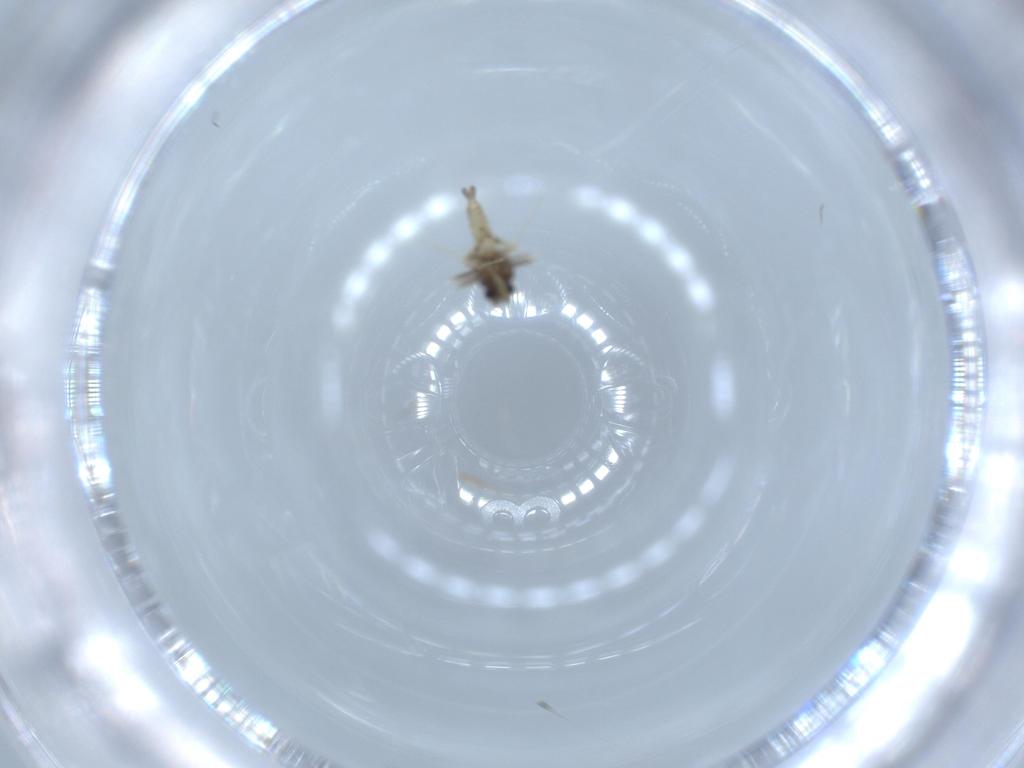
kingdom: Animalia
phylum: Arthropoda
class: Insecta
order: Diptera
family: Ceratopogonidae
